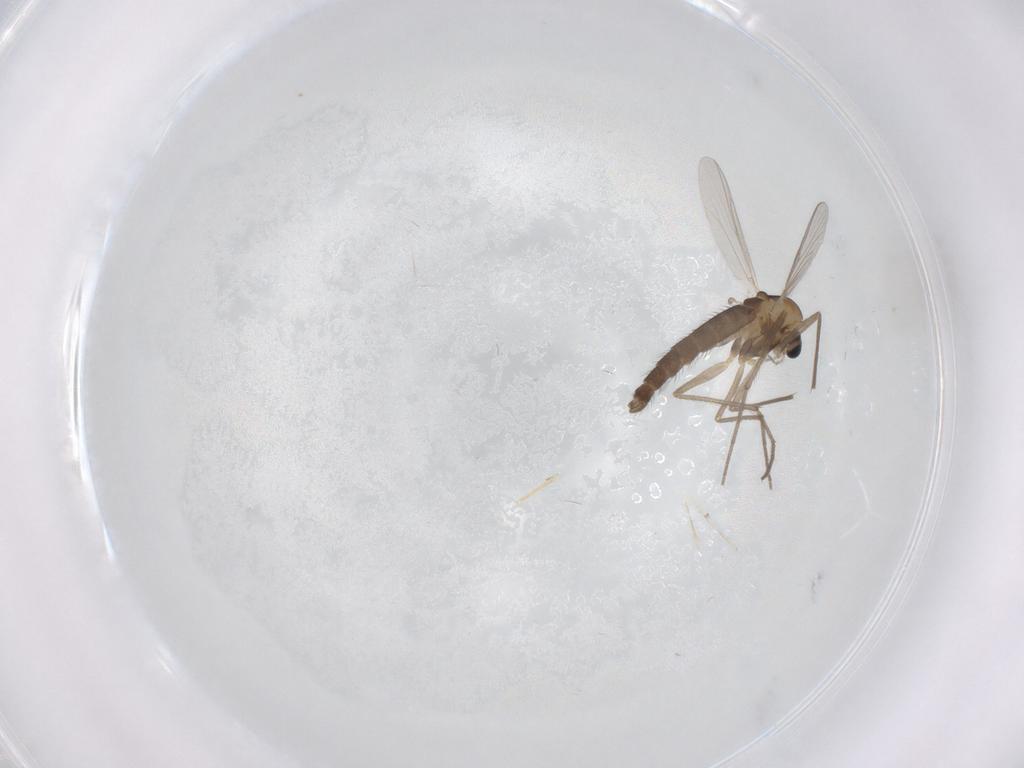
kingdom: Animalia
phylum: Arthropoda
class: Insecta
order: Diptera
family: Chironomidae
